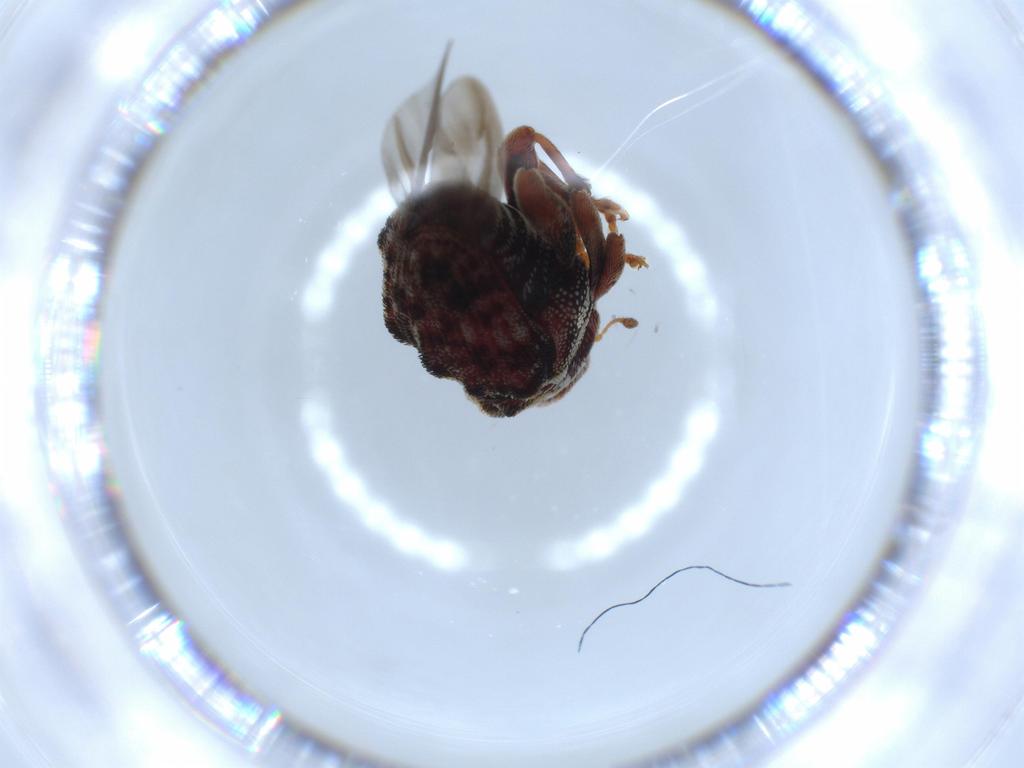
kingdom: Animalia
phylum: Arthropoda
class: Insecta
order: Coleoptera
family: Curculionidae
